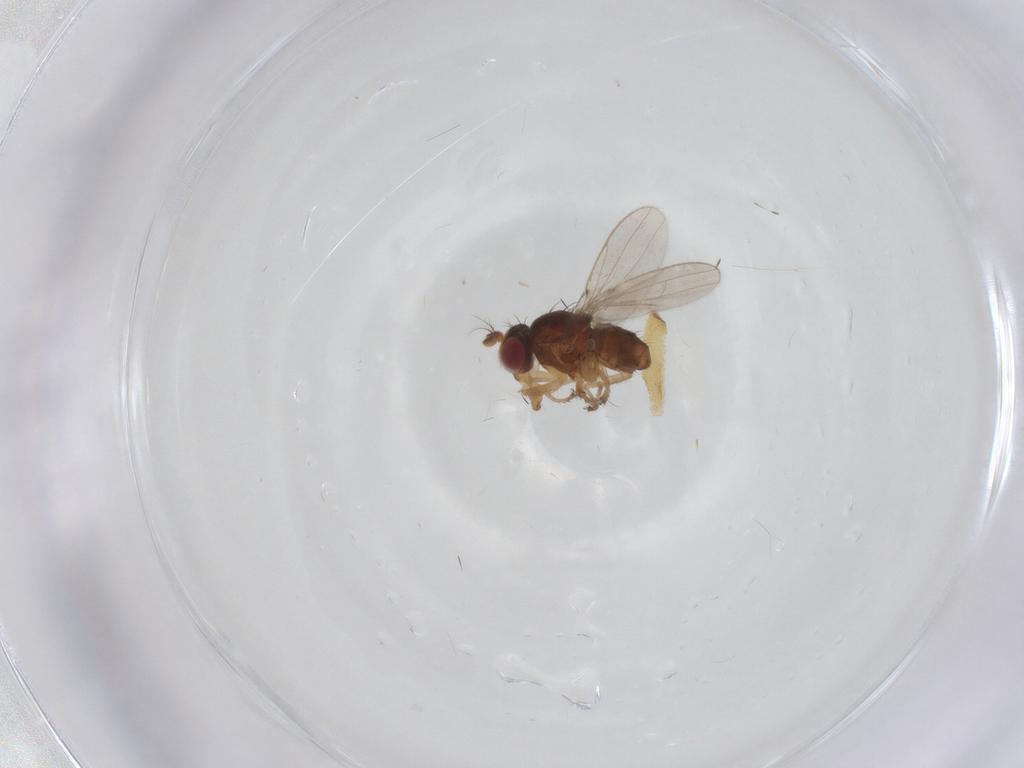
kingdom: Animalia
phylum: Arthropoda
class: Insecta
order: Diptera
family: Ephydridae
